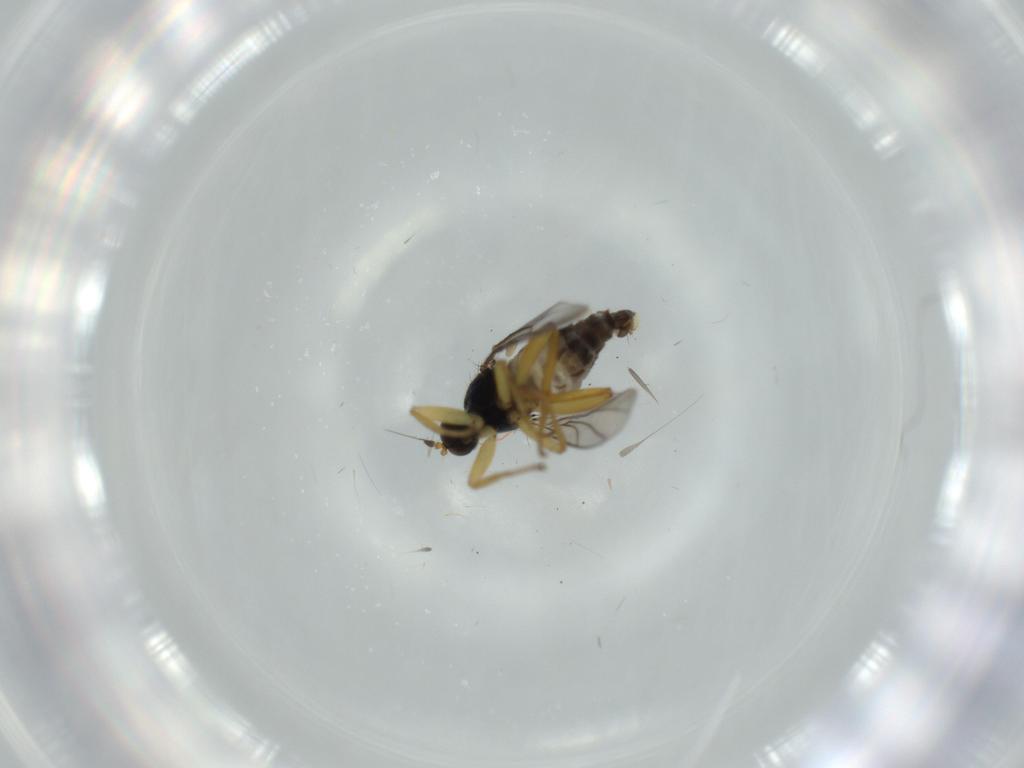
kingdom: Animalia
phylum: Arthropoda
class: Insecta
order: Diptera
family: Hybotidae
